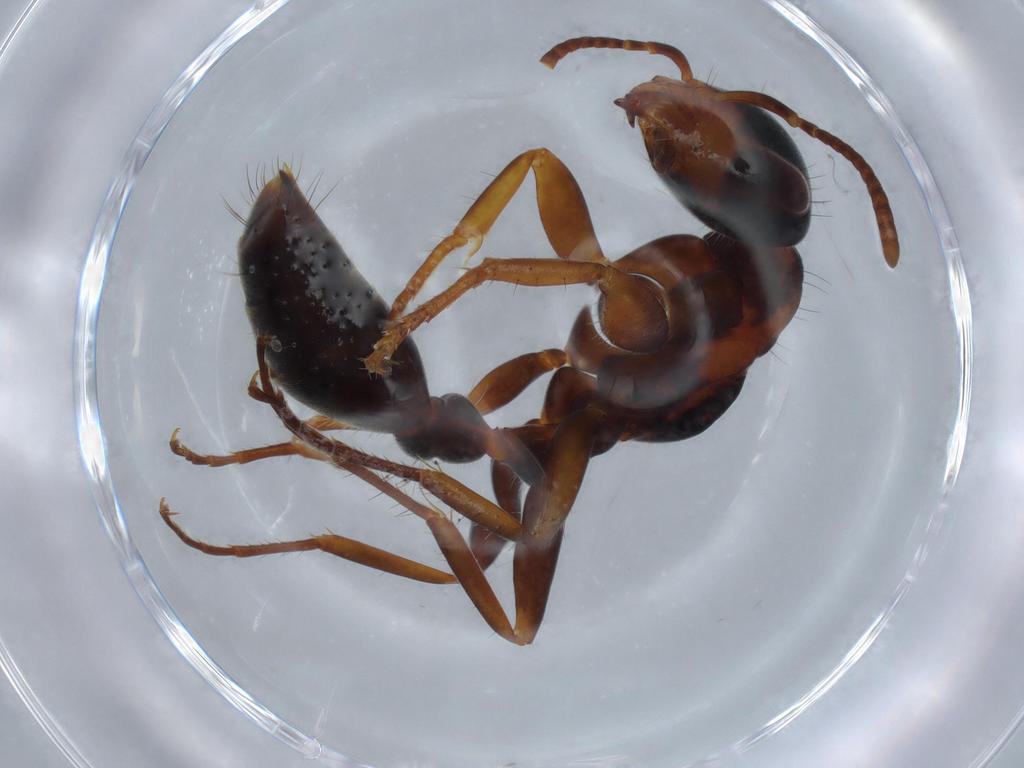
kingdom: Animalia
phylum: Arthropoda
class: Insecta
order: Hymenoptera
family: Formicidae
